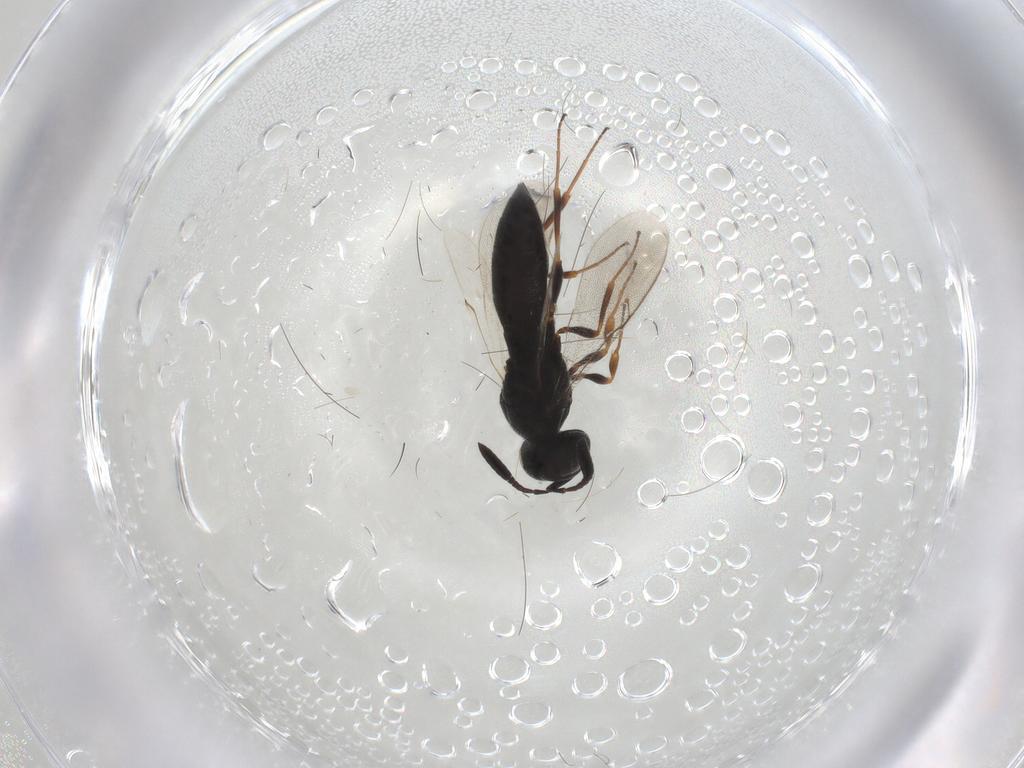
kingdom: Animalia
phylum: Arthropoda
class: Insecta
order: Hymenoptera
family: Scelionidae
